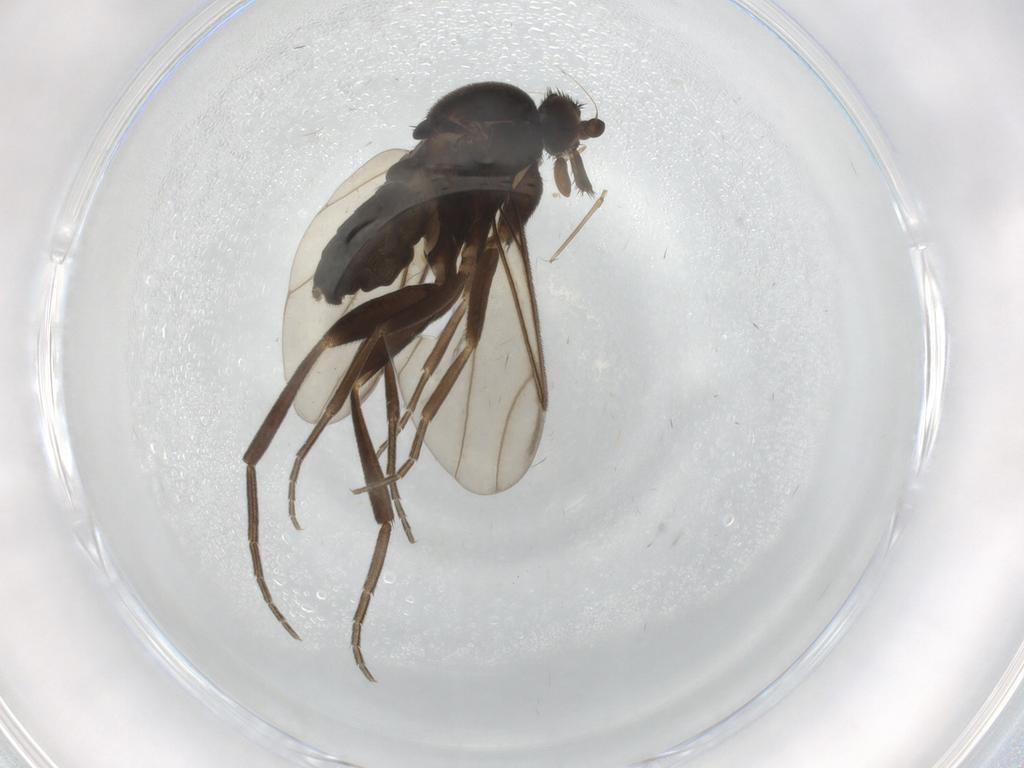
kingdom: Animalia
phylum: Arthropoda
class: Insecta
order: Diptera
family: Phoridae
